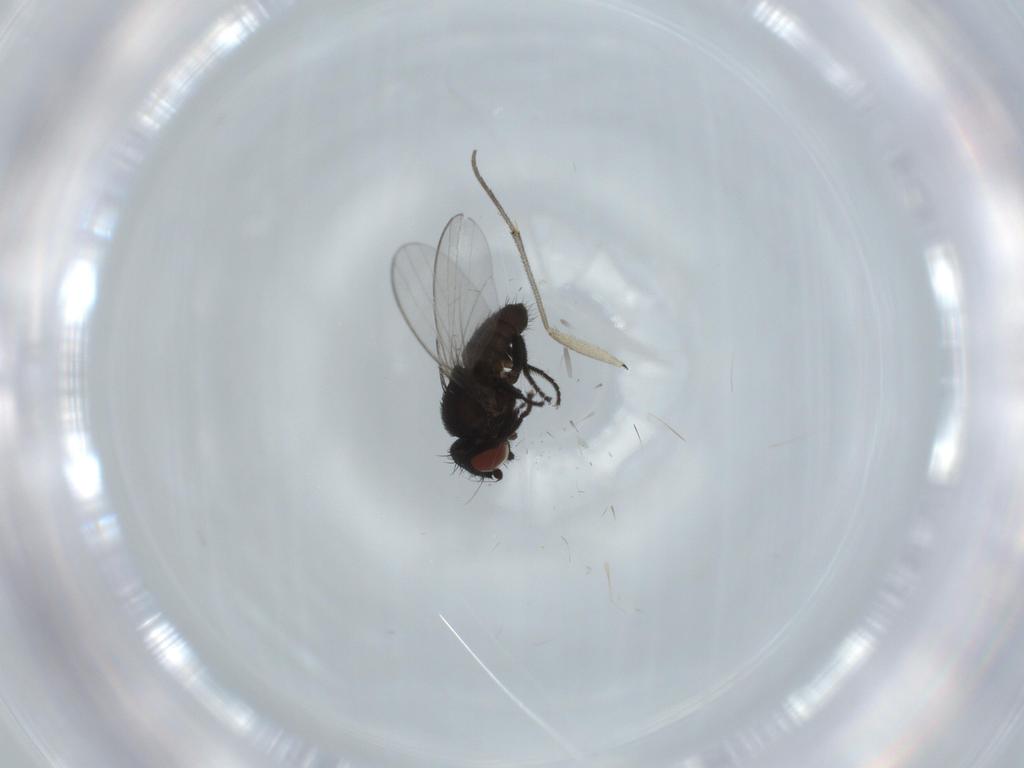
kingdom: Animalia
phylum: Arthropoda
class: Insecta
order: Diptera
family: Milichiidae
